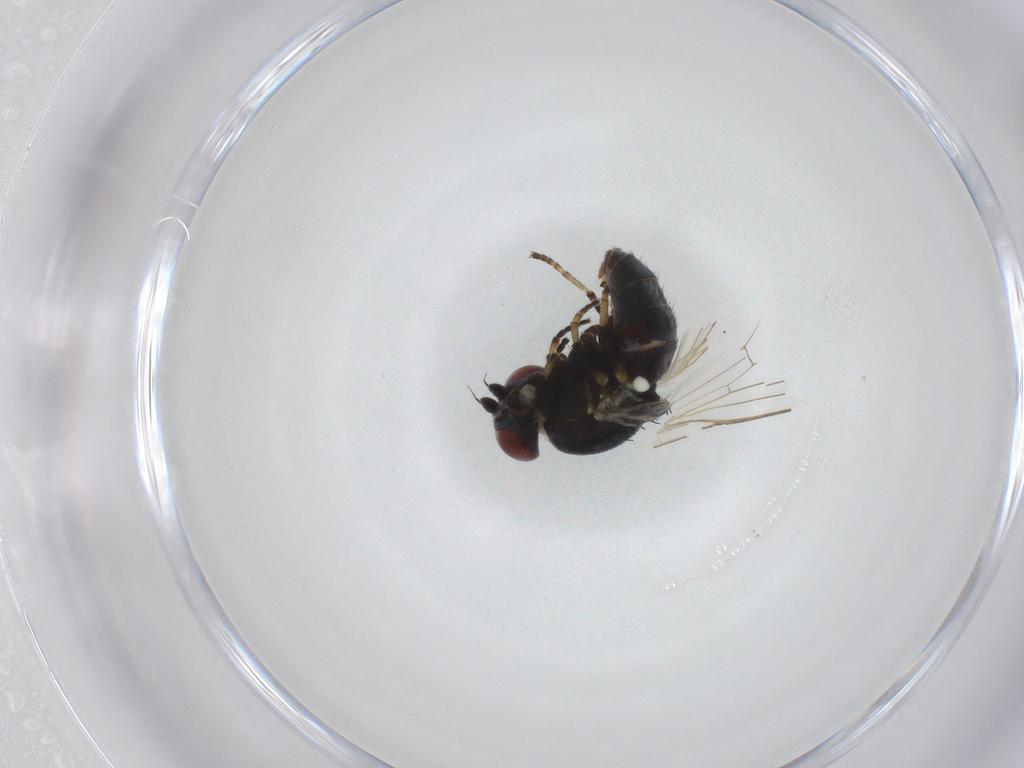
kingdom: Animalia
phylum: Arthropoda
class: Insecta
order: Diptera
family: Chamaemyiidae
